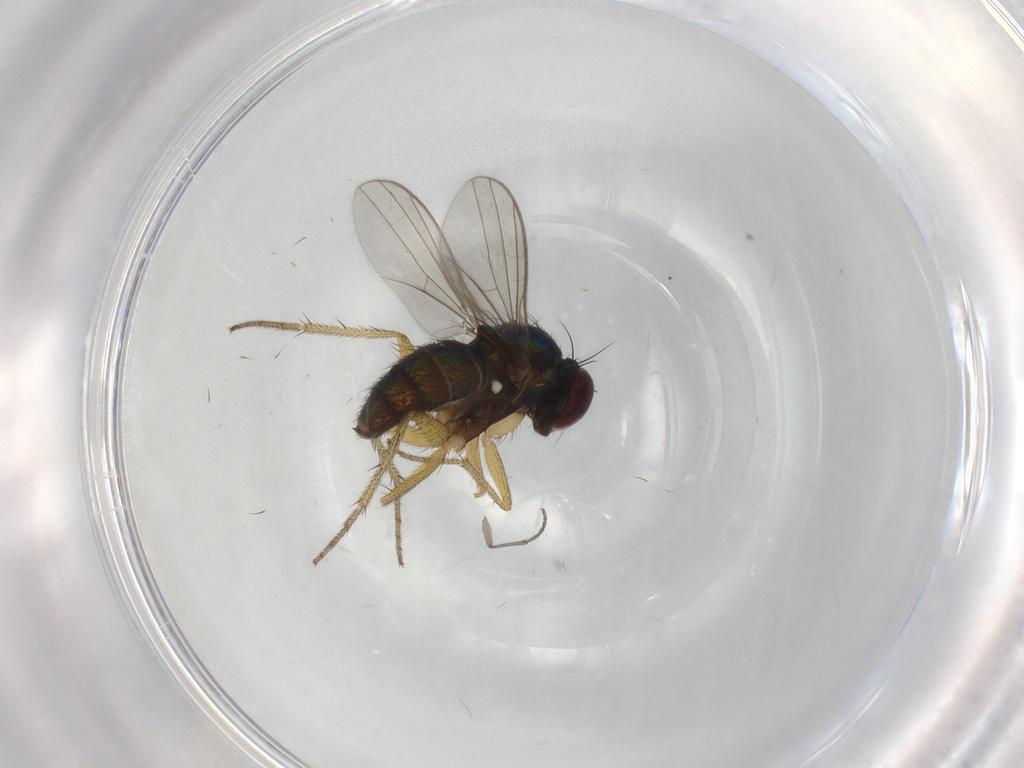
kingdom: Animalia
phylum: Arthropoda
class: Insecta
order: Diptera
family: Sciaridae
